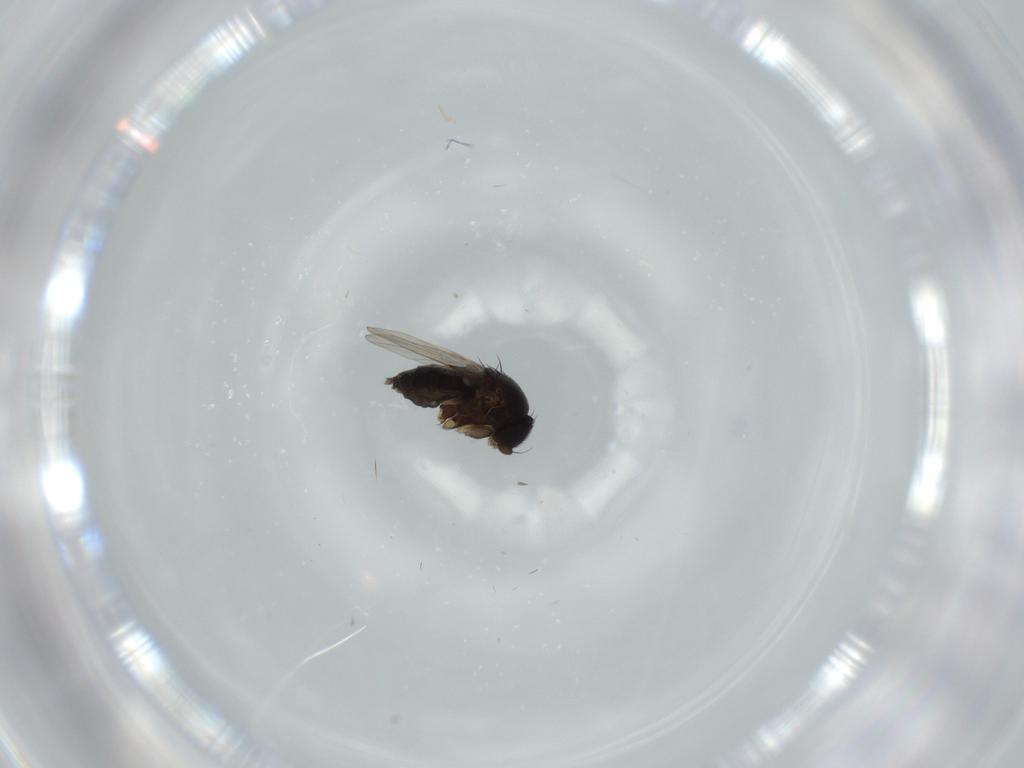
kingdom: Animalia
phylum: Arthropoda
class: Insecta
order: Diptera
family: Phoridae
